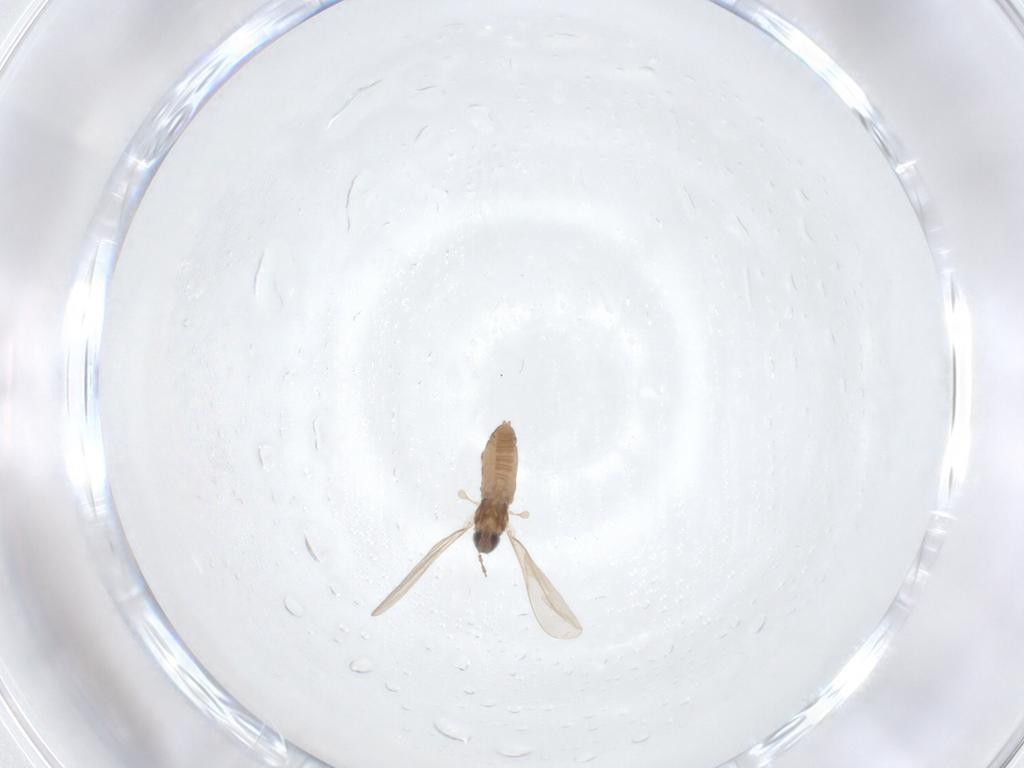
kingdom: Animalia
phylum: Arthropoda
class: Insecta
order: Diptera
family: Cecidomyiidae
